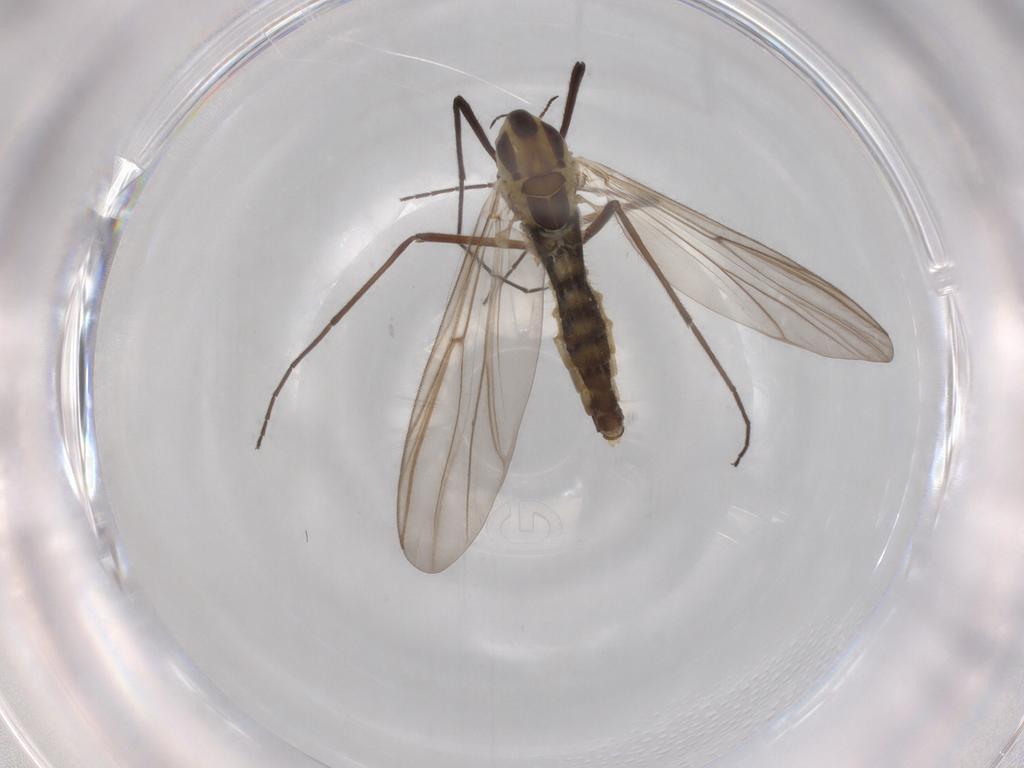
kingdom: Animalia
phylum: Arthropoda
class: Insecta
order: Diptera
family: Chironomidae
